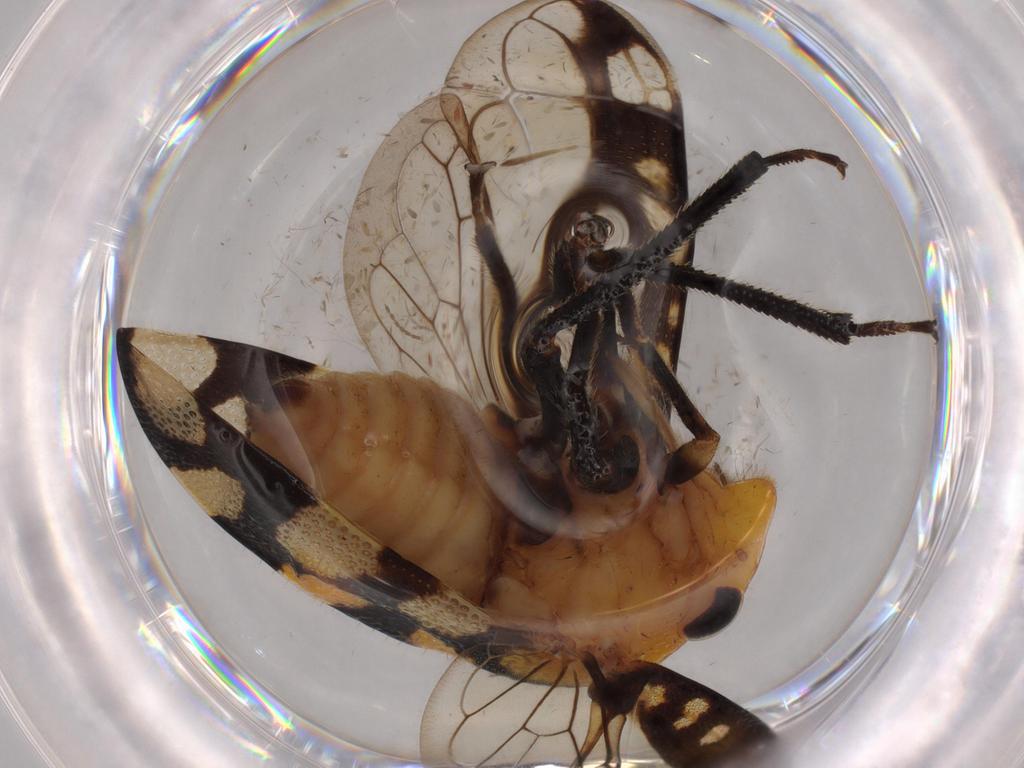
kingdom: Animalia
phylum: Arthropoda
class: Insecta
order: Hemiptera
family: Membracidae
